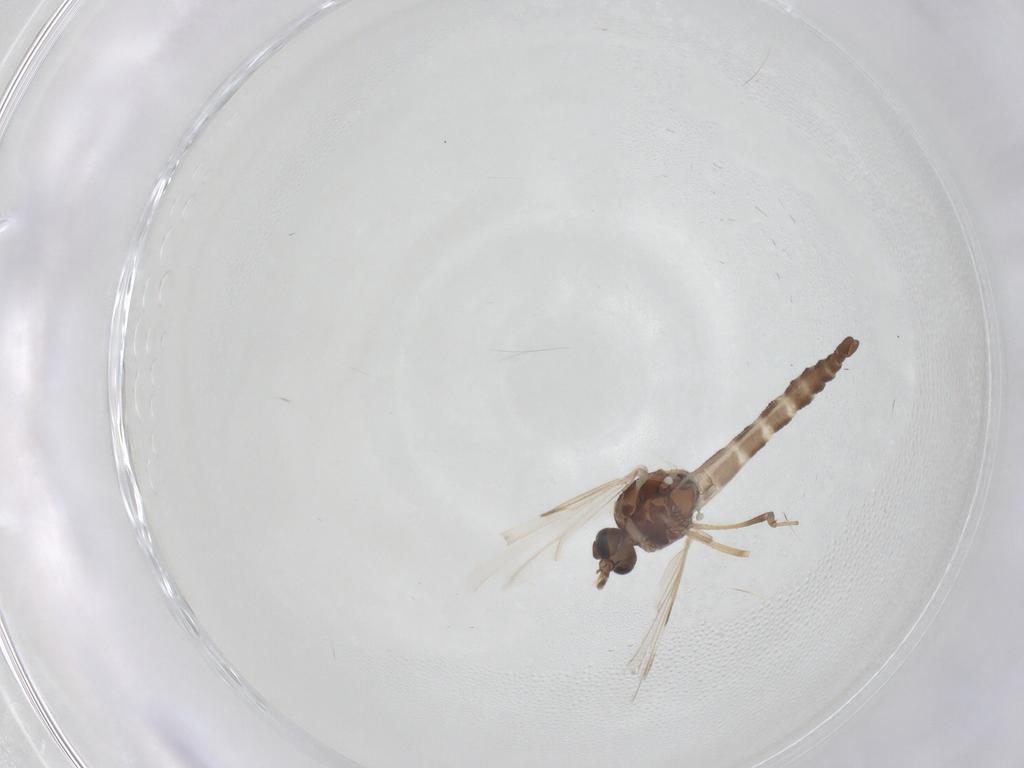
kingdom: Animalia
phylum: Arthropoda
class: Insecta
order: Diptera
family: Ceratopogonidae
